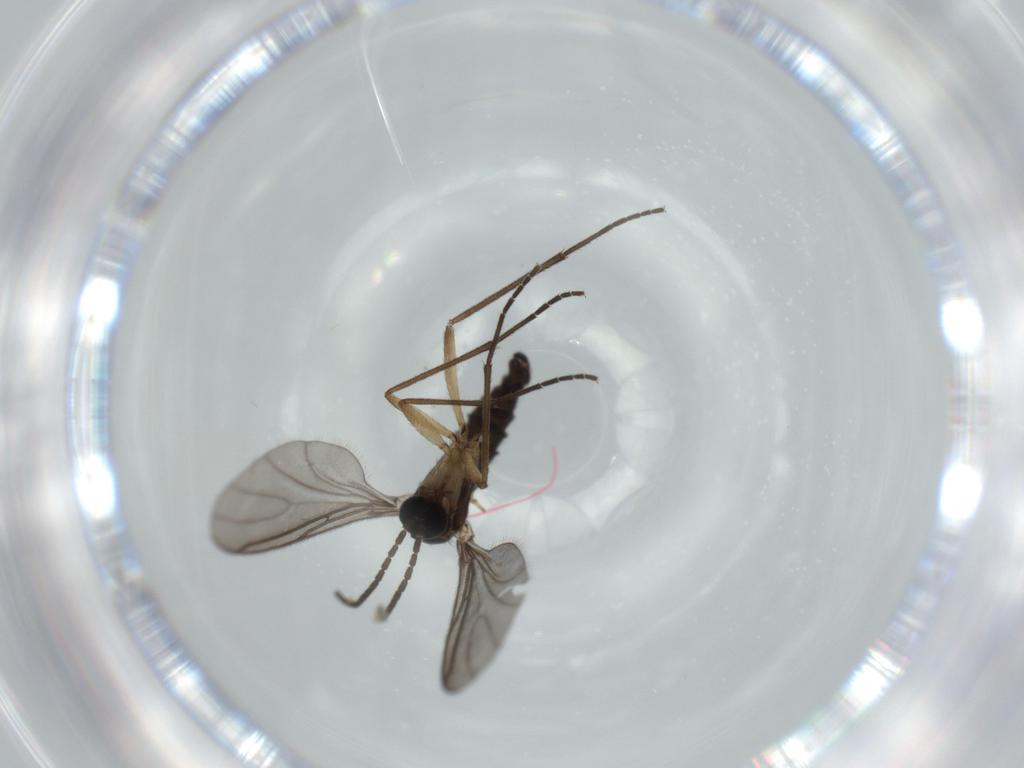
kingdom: Animalia
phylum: Arthropoda
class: Insecta
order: Diptera
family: Sciaridae
